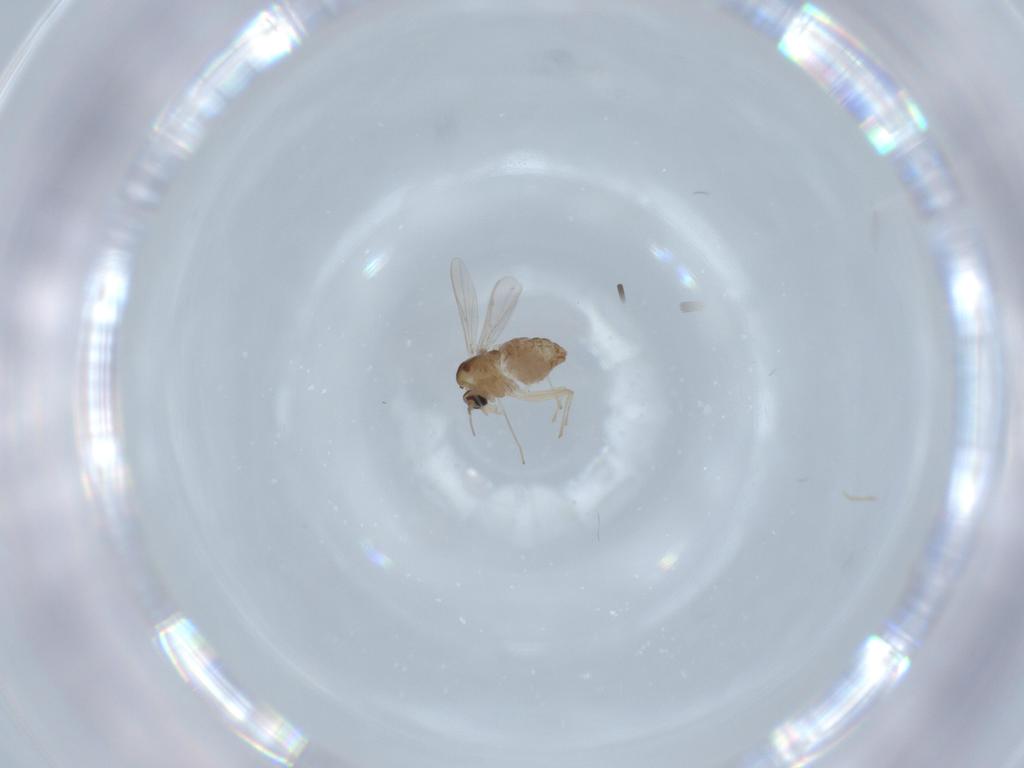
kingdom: Animalia
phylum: Arthropoda
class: Insecta
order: Diptera
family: Chironomidae
